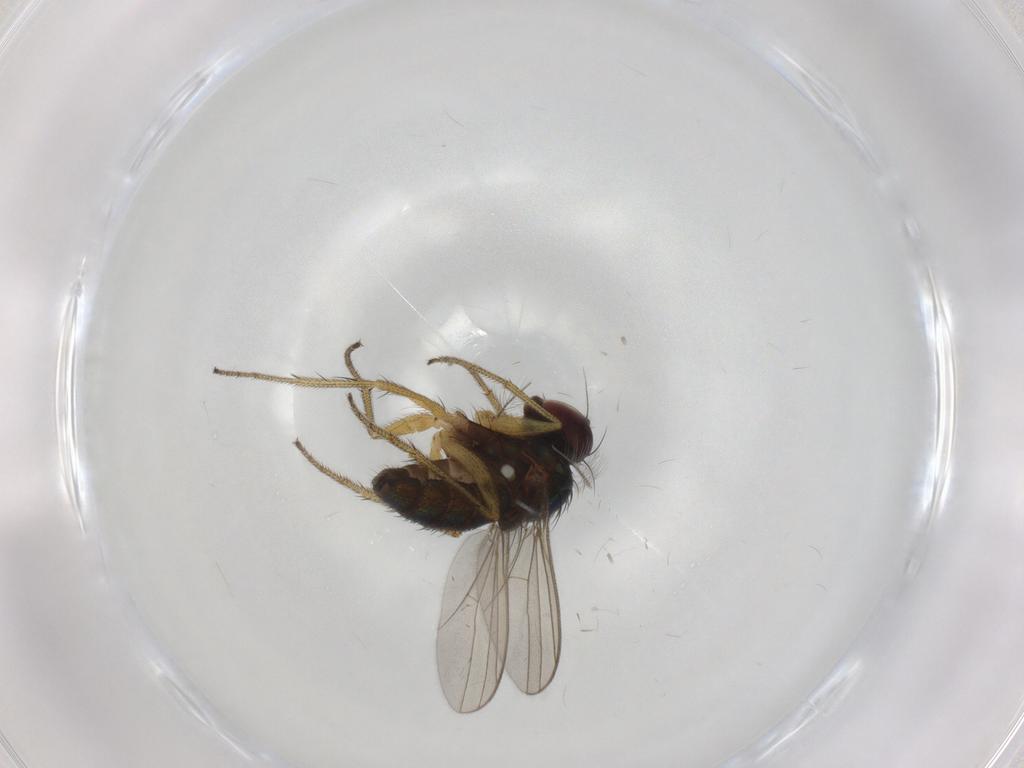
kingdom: Animalia
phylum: Arthropoda
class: Insecta
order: Diptera
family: Chironomidae
